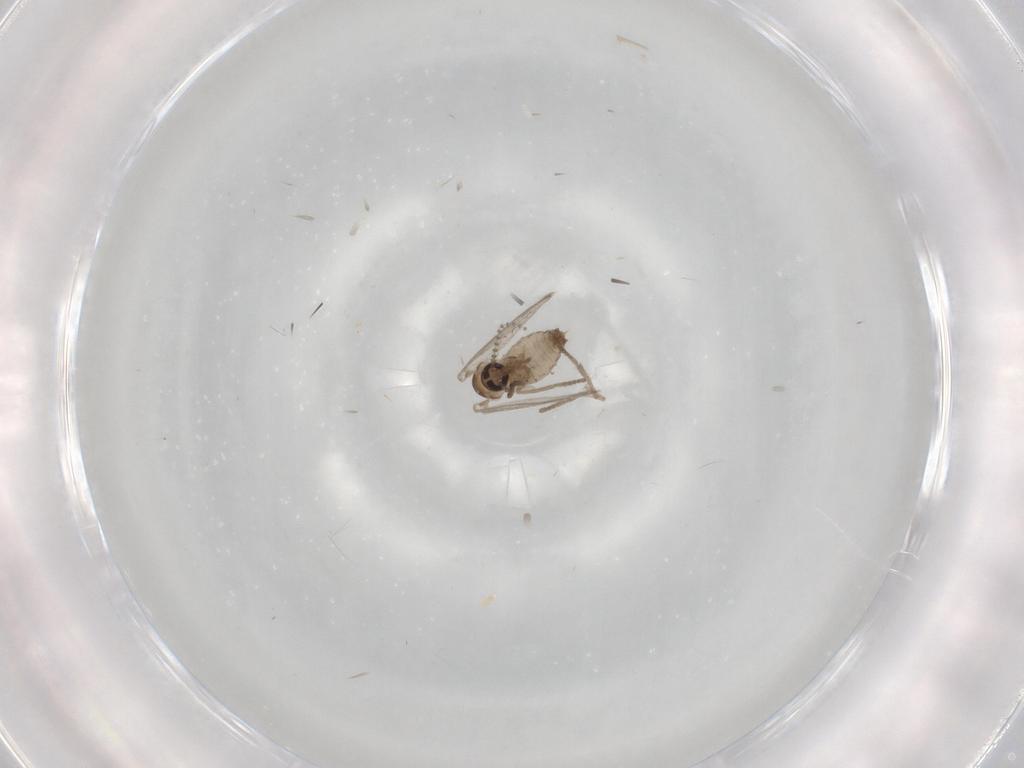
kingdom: Animalia
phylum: Arthropoda
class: Insecta
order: Diptera
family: Psychodidae
